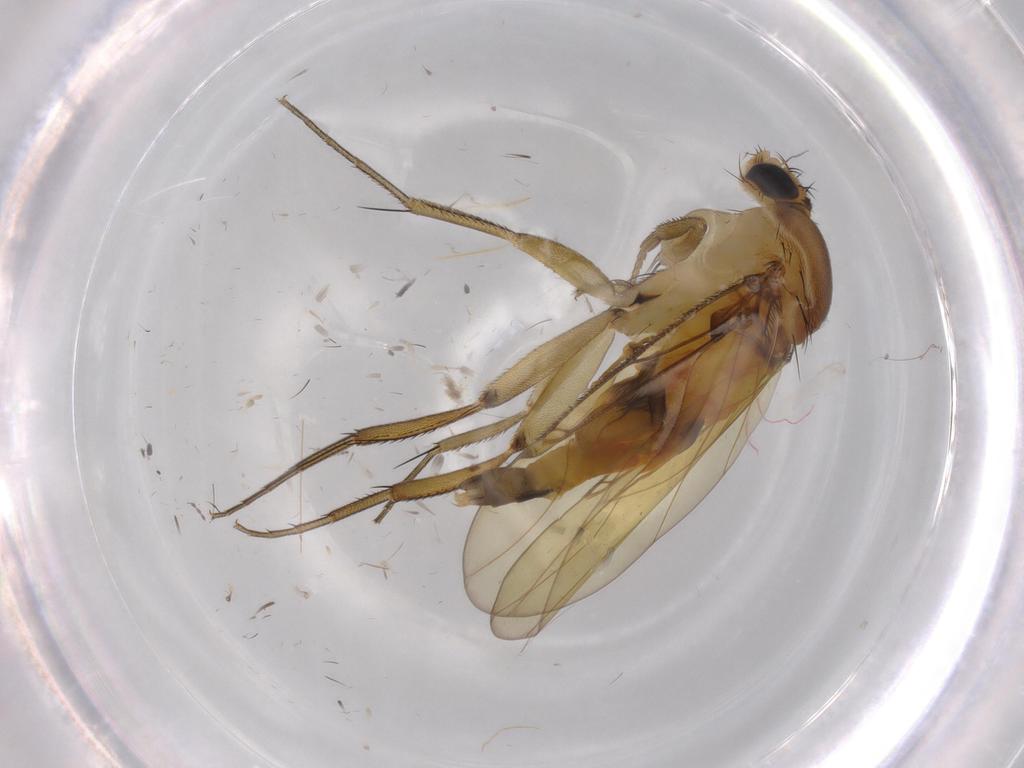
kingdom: Animalia
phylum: Arthropoda
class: Insecta
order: Diptera
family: Phoridae
